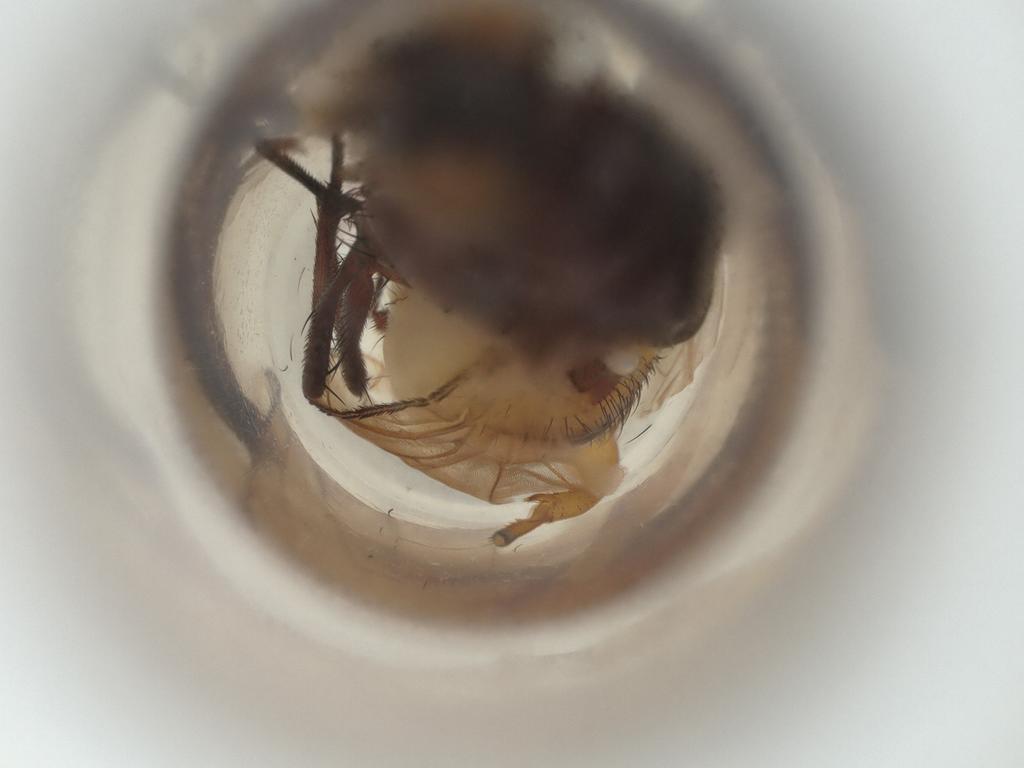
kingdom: Animalia
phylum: Arthropoda
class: Insecta
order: Diptera
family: Anthomyiidae
